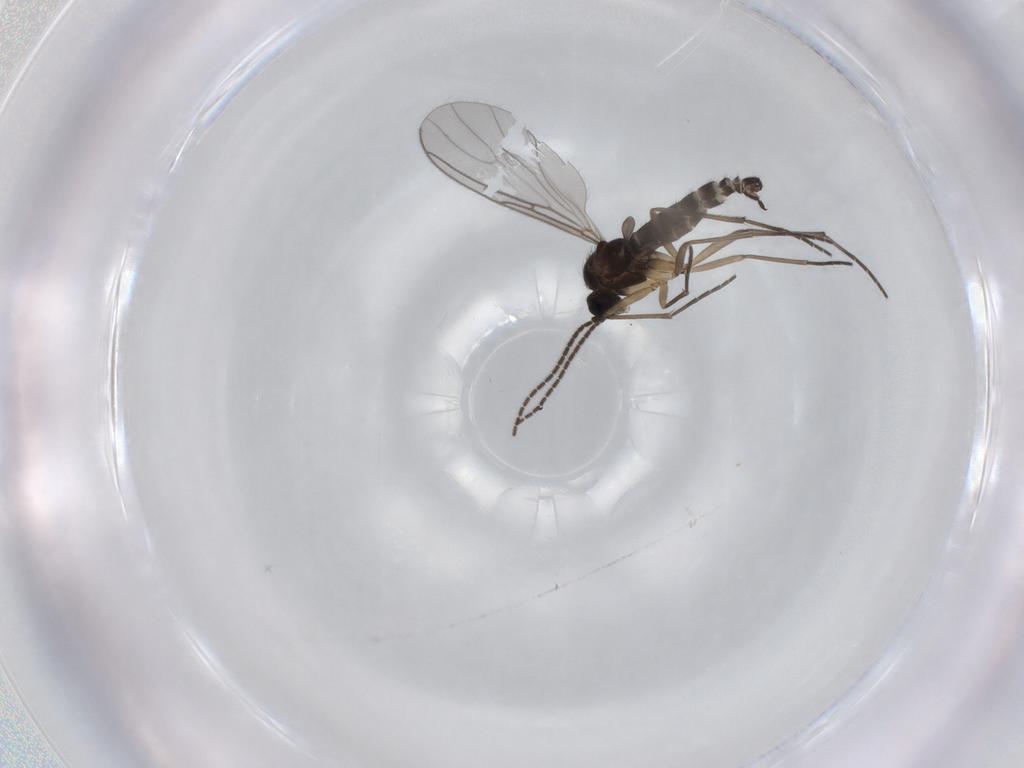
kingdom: Animalia
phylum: Arthropoda
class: Insecta
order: Diptera
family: Sciaridae
